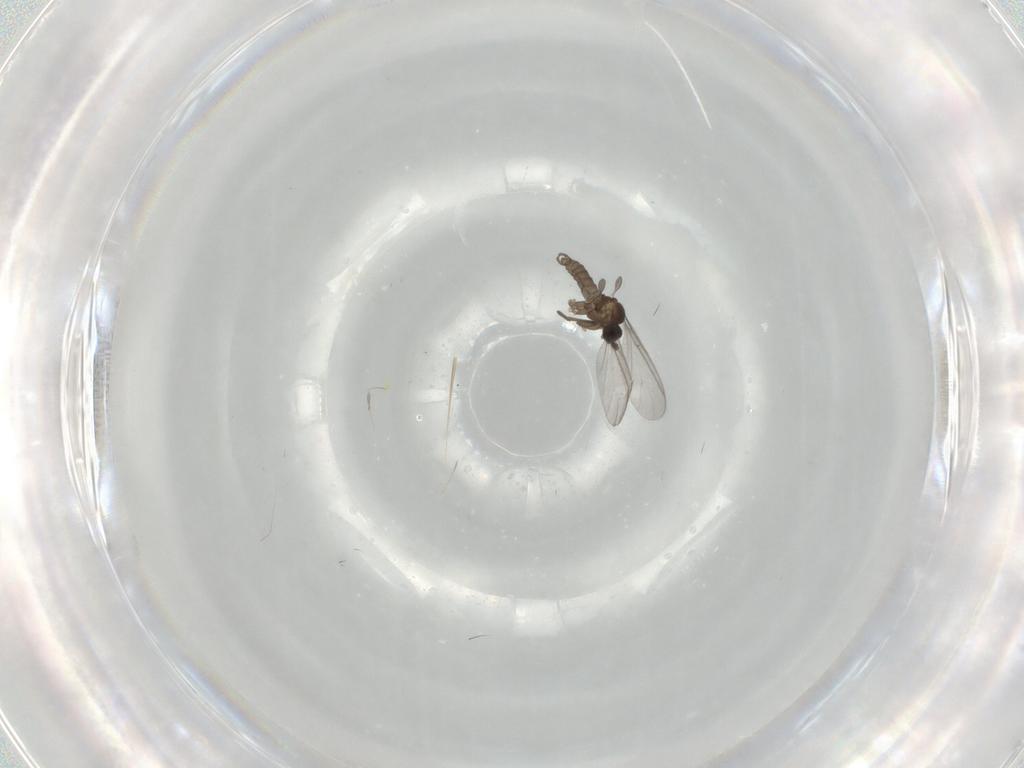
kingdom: Animalia
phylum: Arthropoda
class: Insecta
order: Diptera
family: Sciaridae
